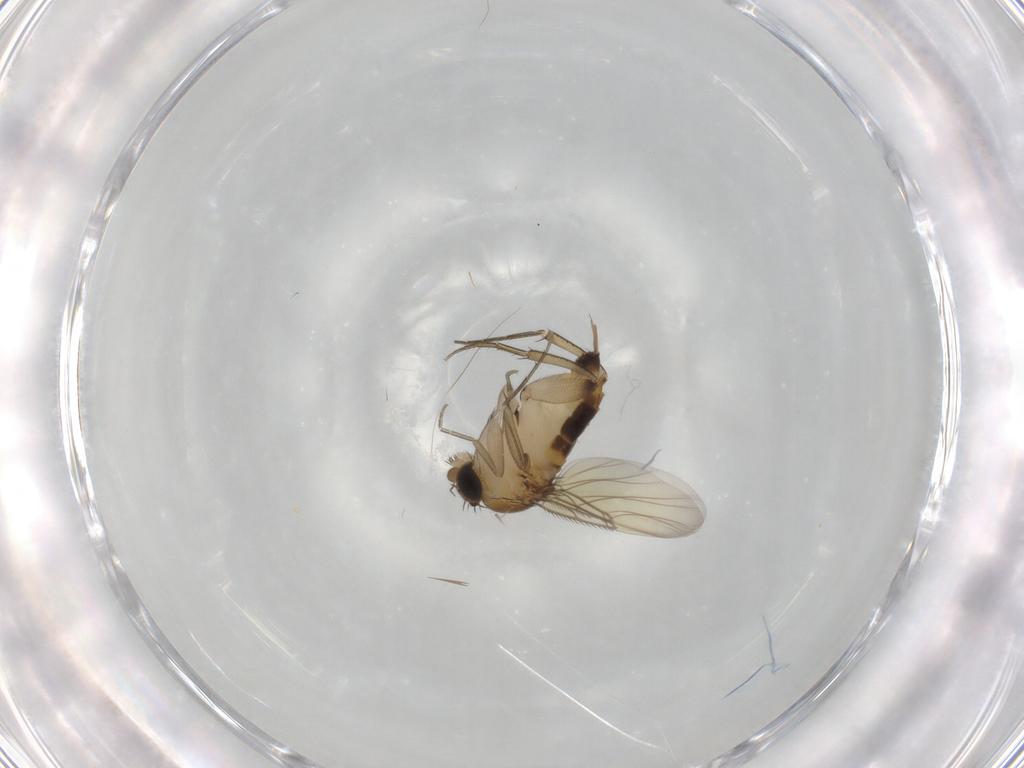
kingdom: Animalia
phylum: Arthropoda
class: Insecta
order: Diptera
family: Phoridae
